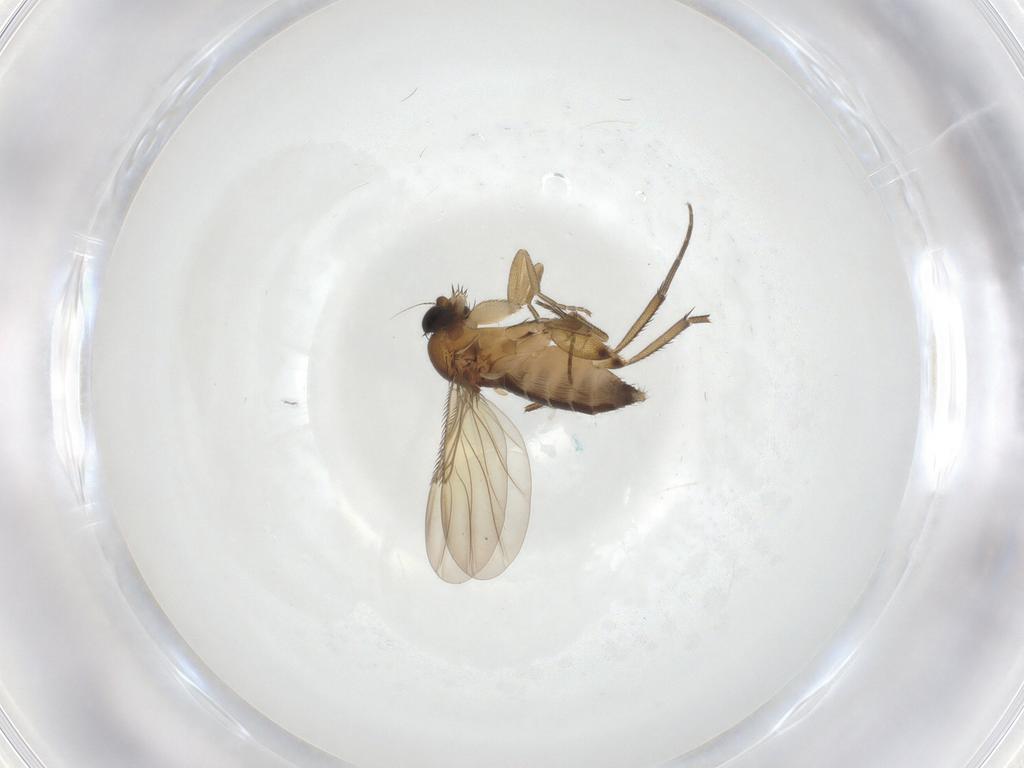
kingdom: Animalia
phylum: Arthropoda
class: Insecta
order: Diptera
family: Phoridae
